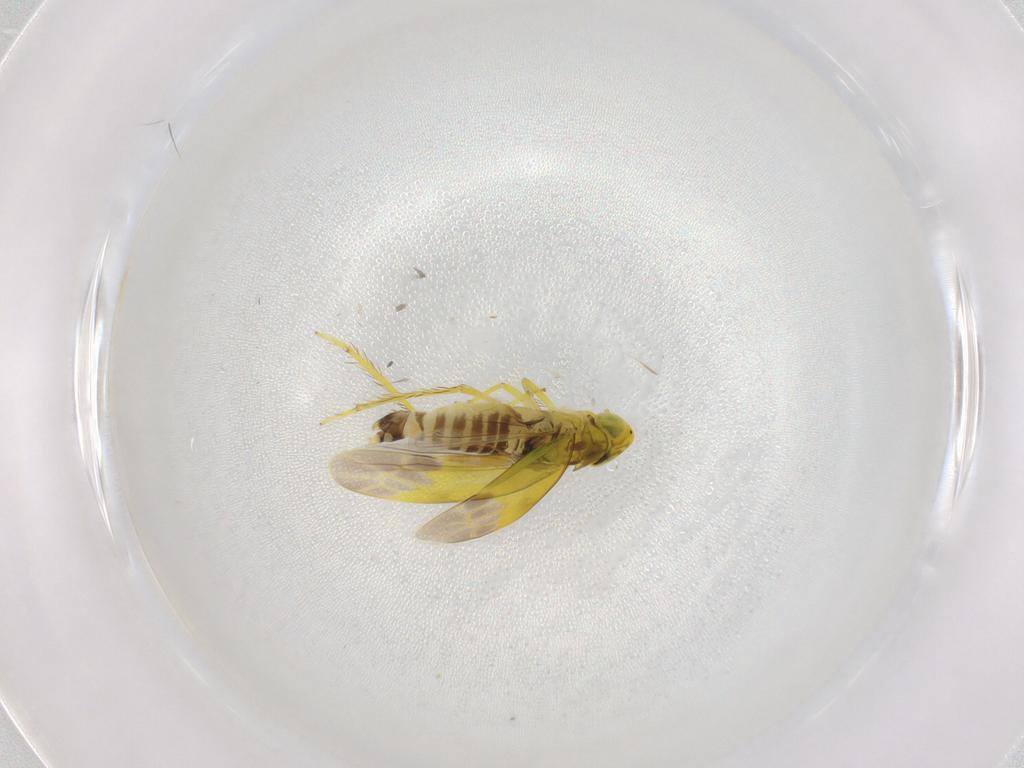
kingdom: Animalia
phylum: Arthropoda
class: Insecta
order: Hemiptera
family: Cicadellidae
